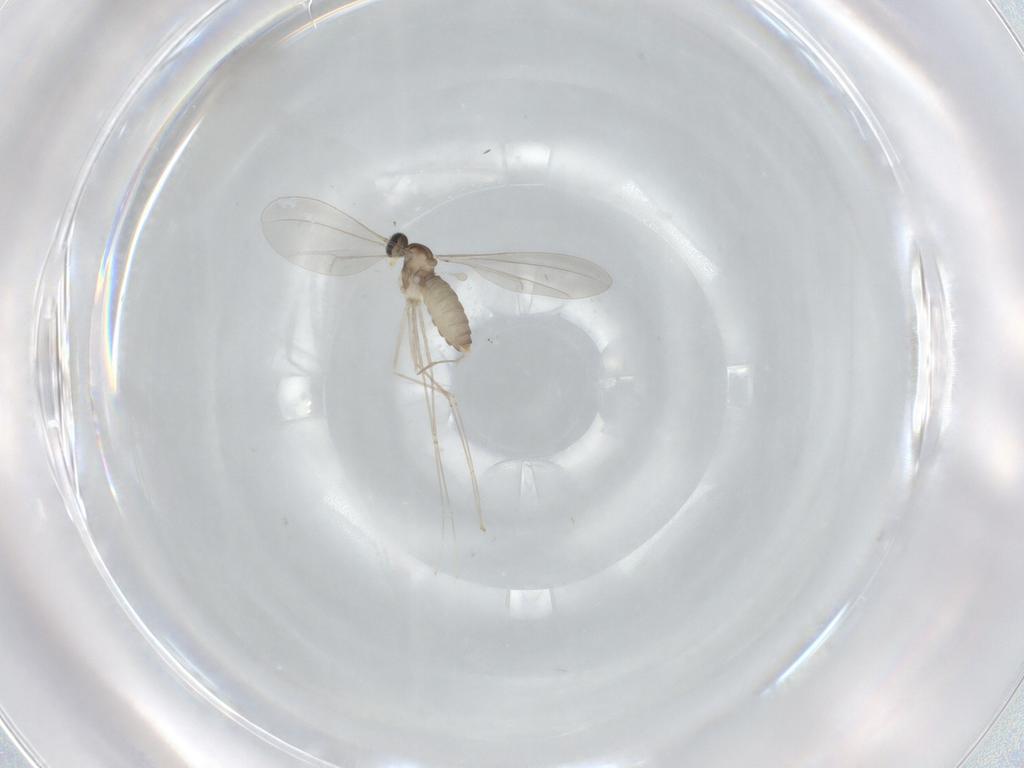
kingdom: Animalia
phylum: Arthropoda
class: Insecta
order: Diptera
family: Cecidomyiidae
